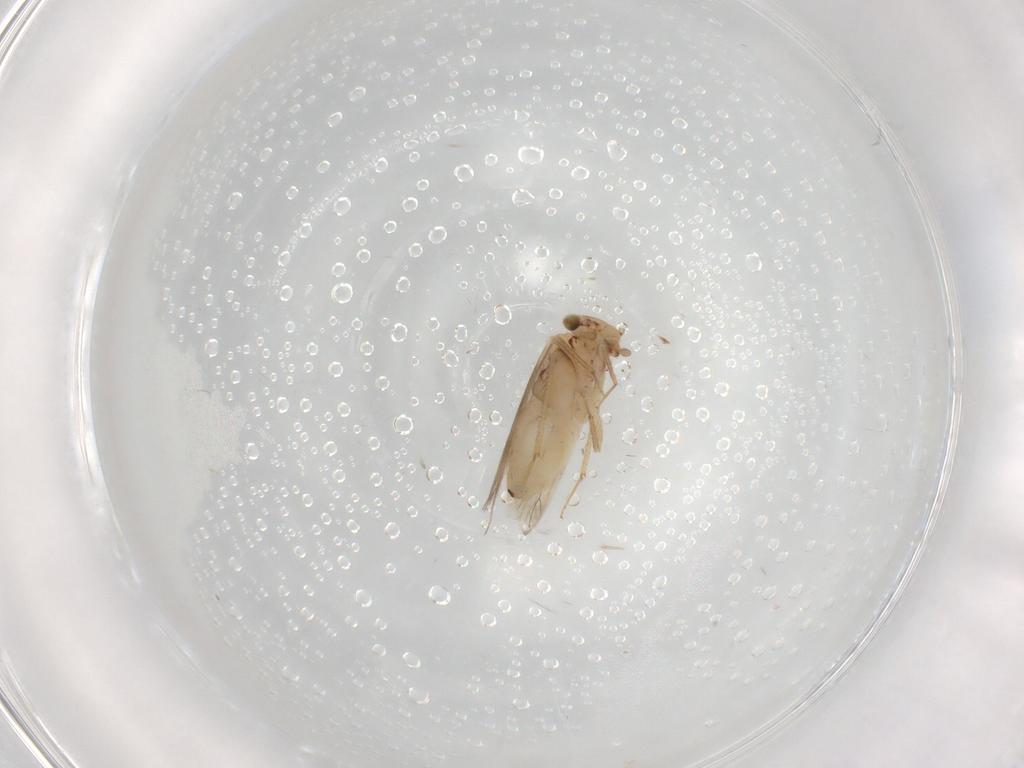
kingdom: Animalia
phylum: Arthropoda
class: Insecta
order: Psocodea
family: Lepidopsocidae
